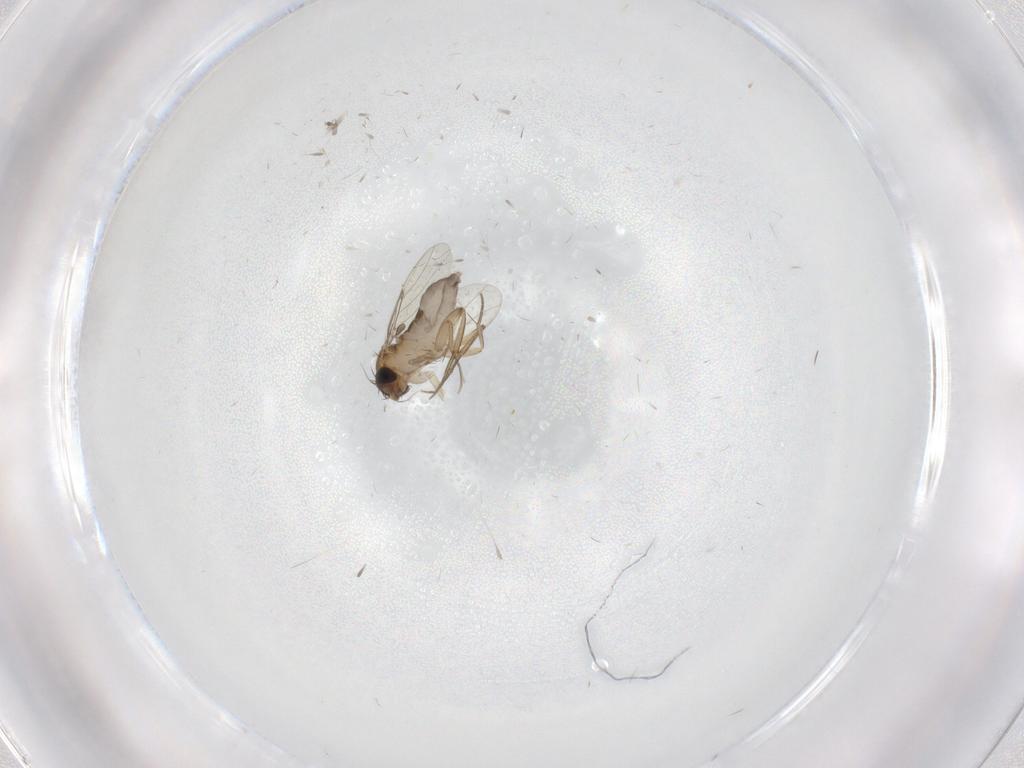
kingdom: Animalia
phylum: Arthropoda
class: Insecta
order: Diptera
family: Phoridae
